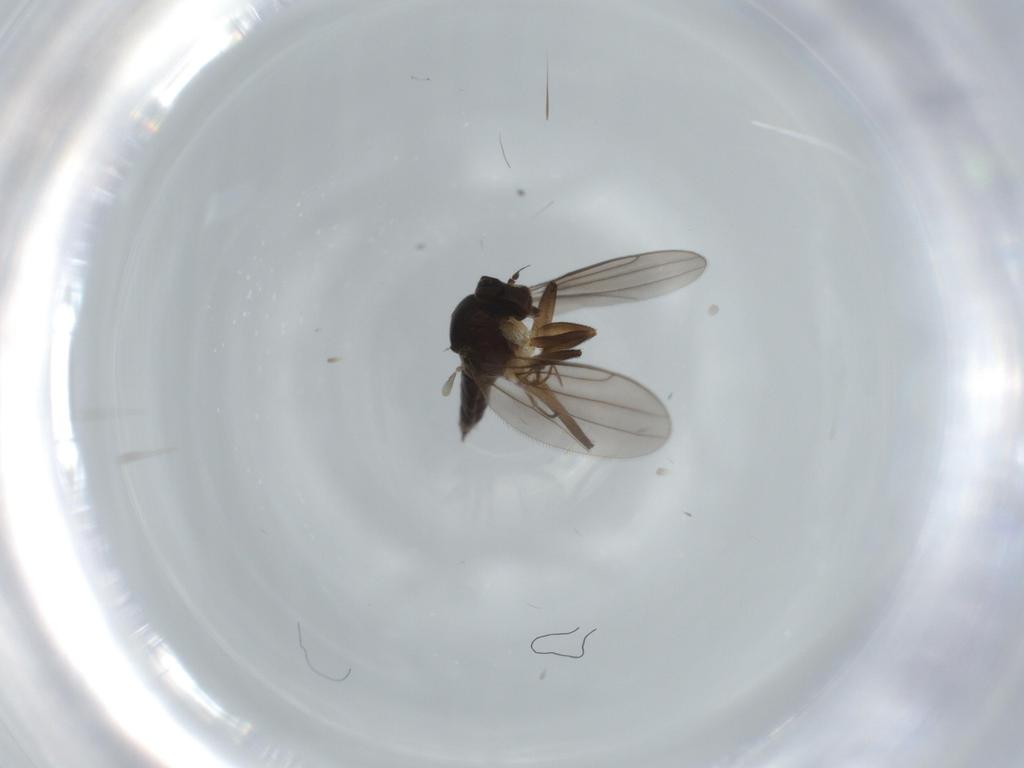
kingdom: Animalia
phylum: Arthropoda
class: Insecta
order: Diptera
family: Hybotidae
